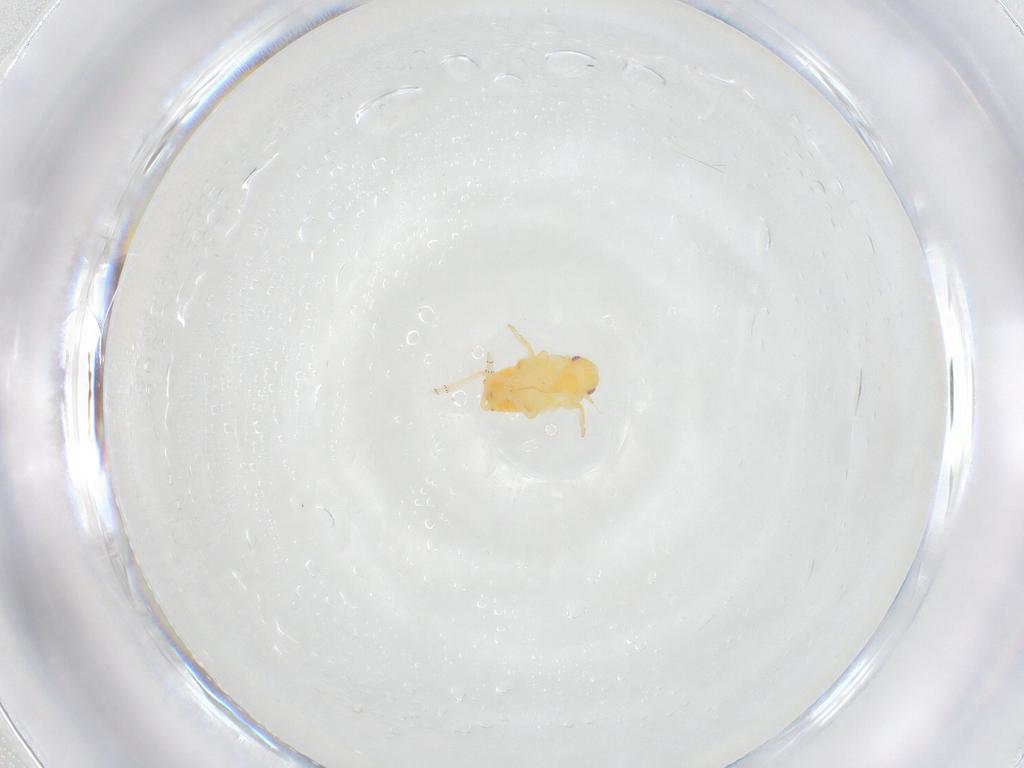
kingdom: Animalia
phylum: Arthropoda
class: Insecta
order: Hemiptera
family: Flatidae
